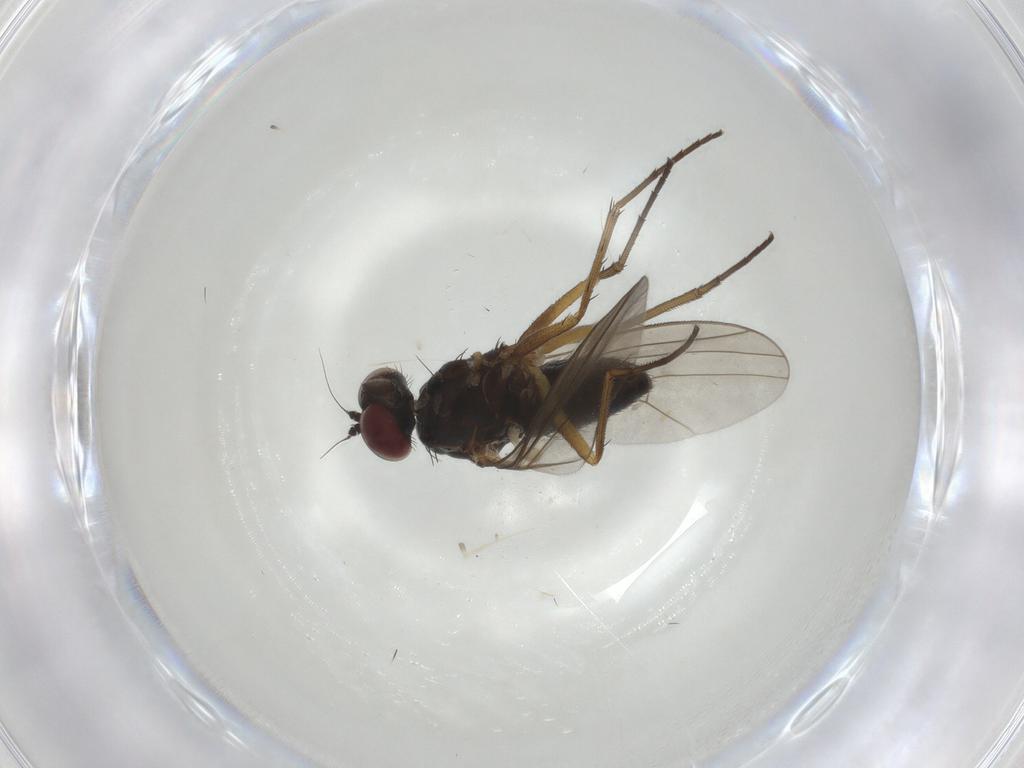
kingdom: Animalia
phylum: Arthropoda
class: Insecta
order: Diptera
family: Dolichopodidae
